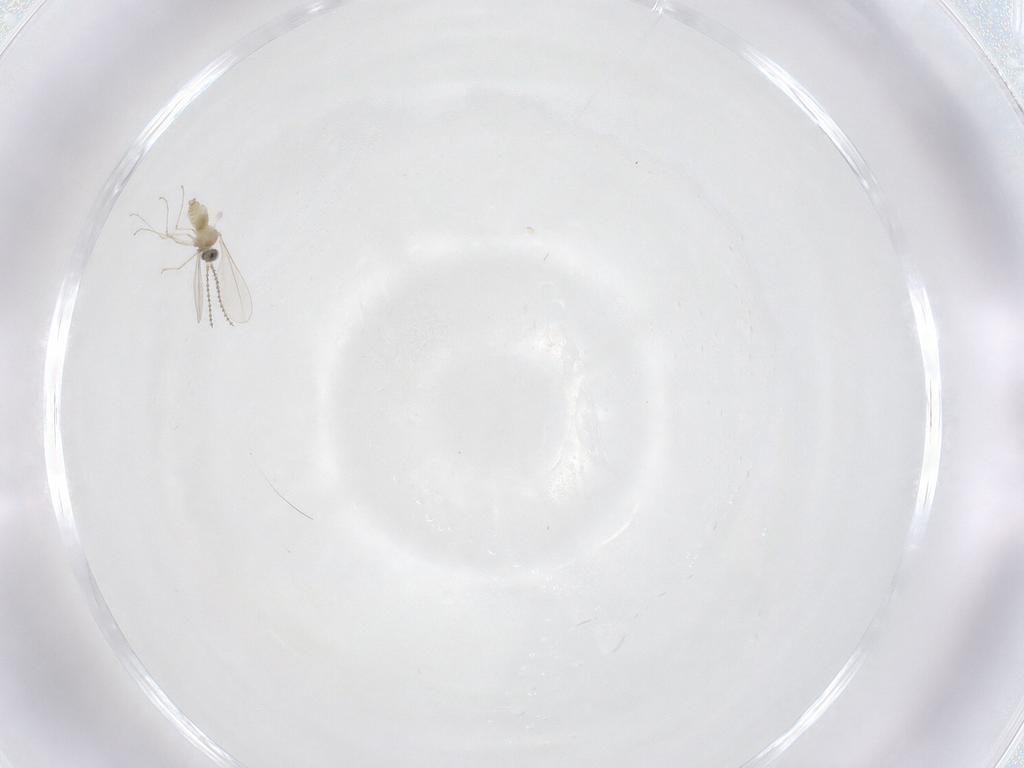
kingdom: Animalia
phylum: Arthropoda
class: Insecta
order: Diptera
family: Cecidomyiidae
